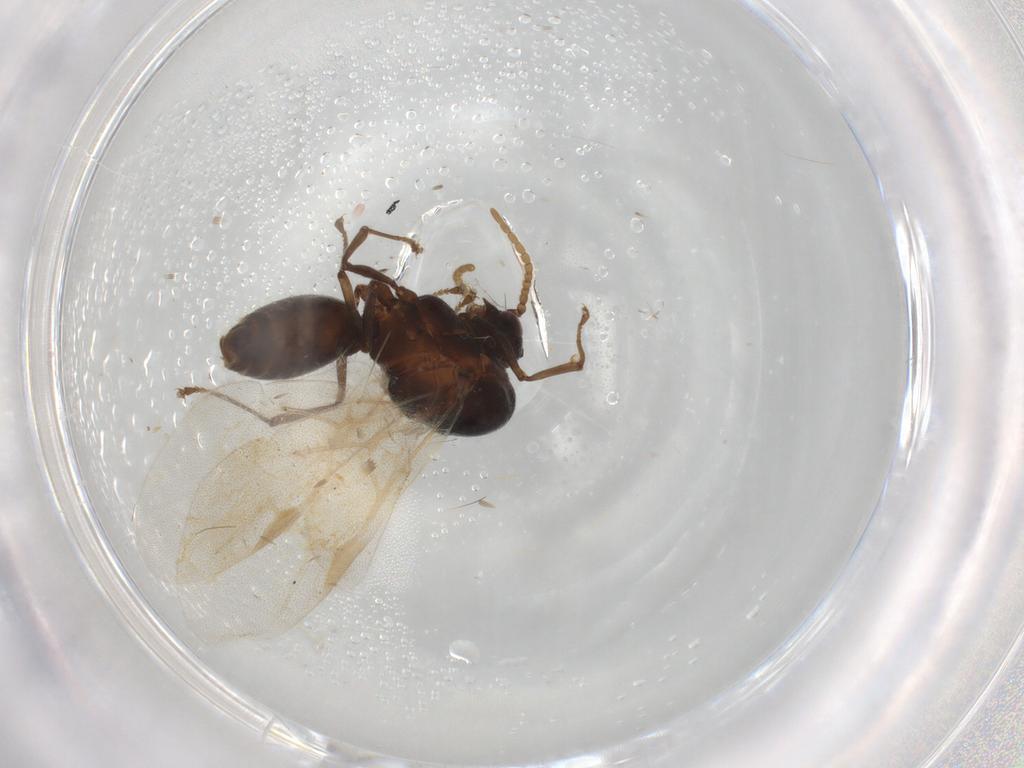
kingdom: Animalia
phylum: Arthropoda
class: Insecta
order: Hymenoptera
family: Formicidae
